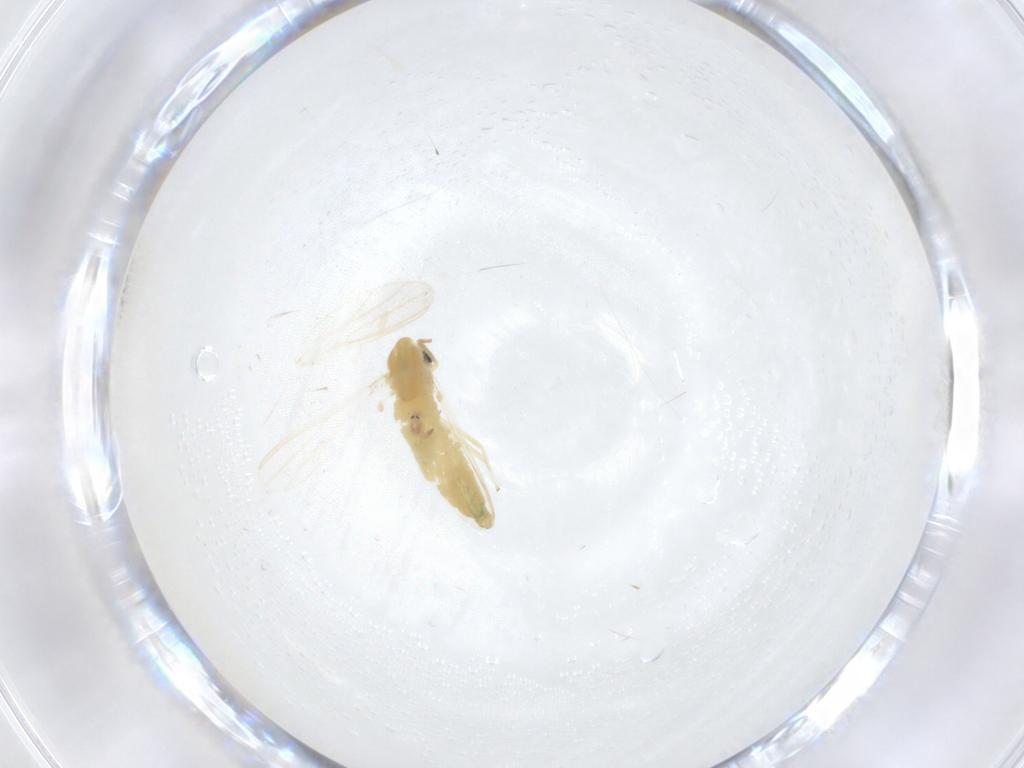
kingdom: Animalia
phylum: Arthropoda
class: Insecta
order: Diptera
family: Chironomidae
